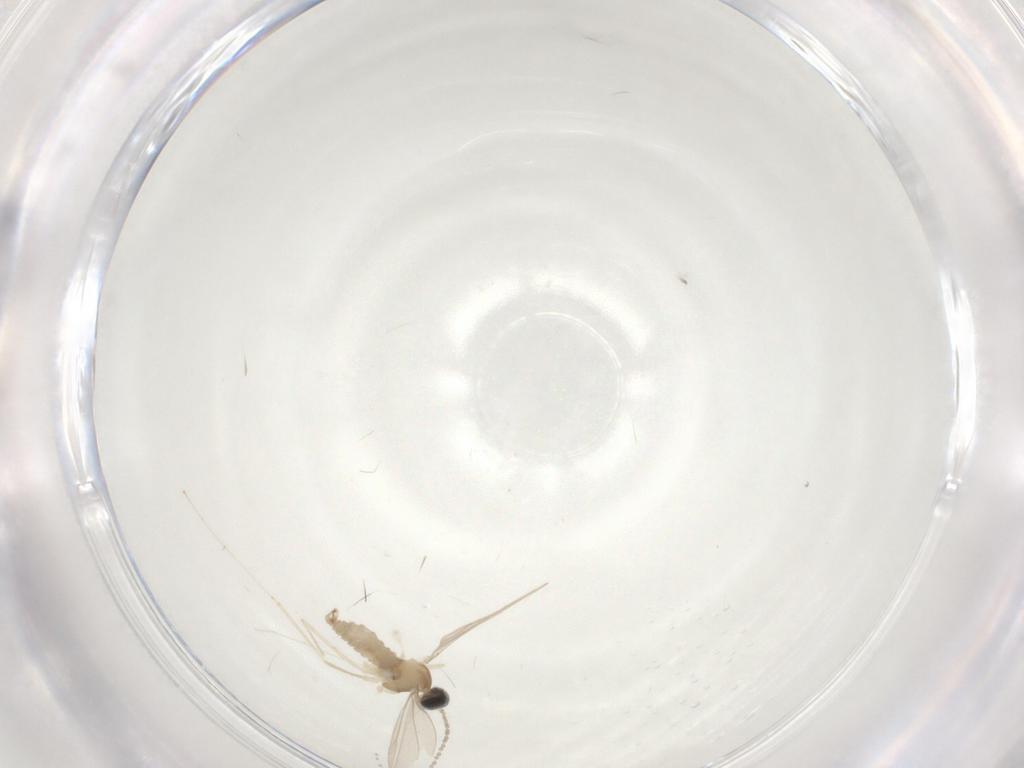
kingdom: Animalia
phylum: Arthropoda
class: Insecta
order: Diptera
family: Cecidomyiidae
